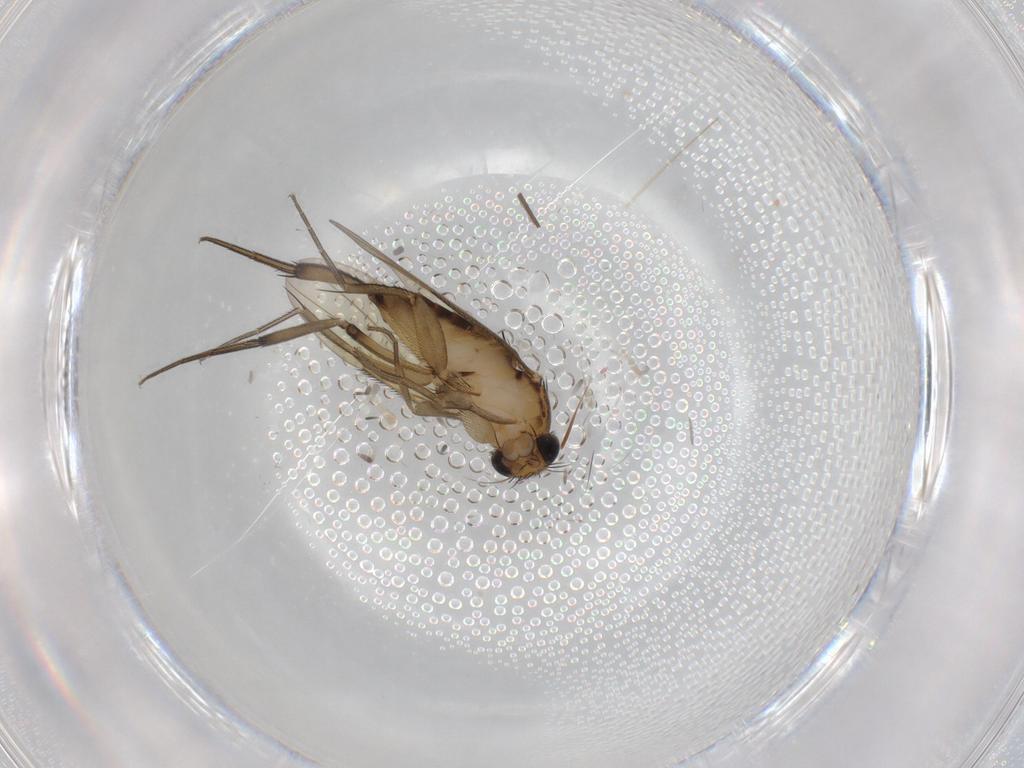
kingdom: Animalia
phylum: Arthropoda
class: Insecta
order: Diptera
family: Phoridae
